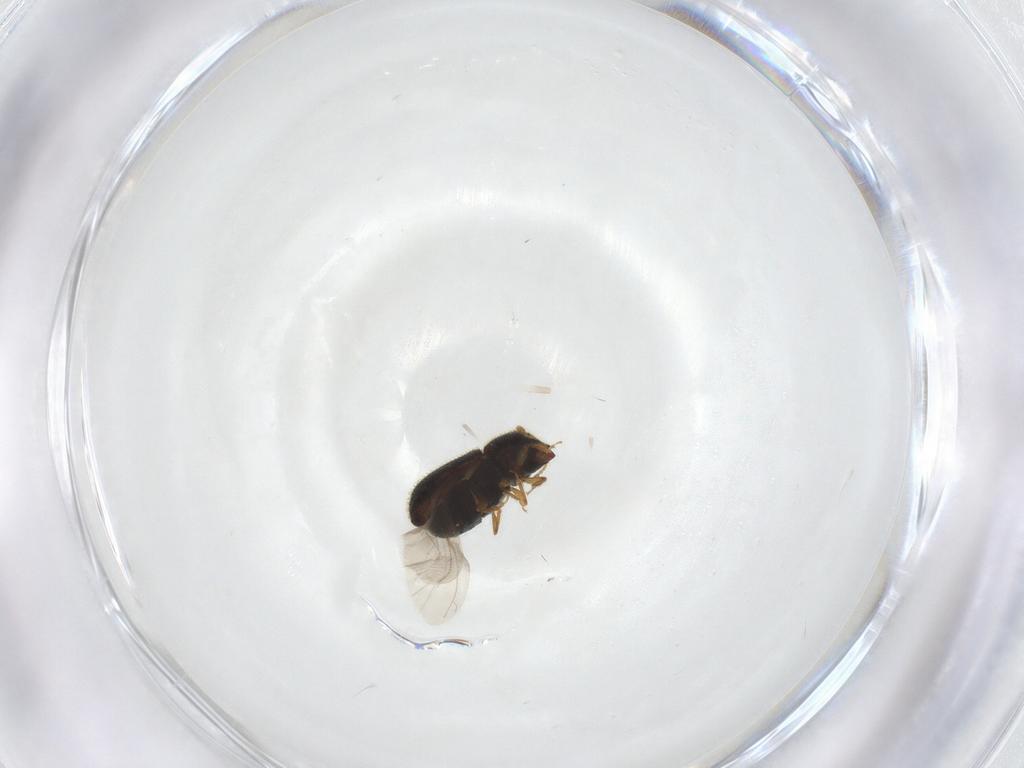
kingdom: Animalia
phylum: Arthropoda
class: Insecta
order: Coleoptera
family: Curculionidae
